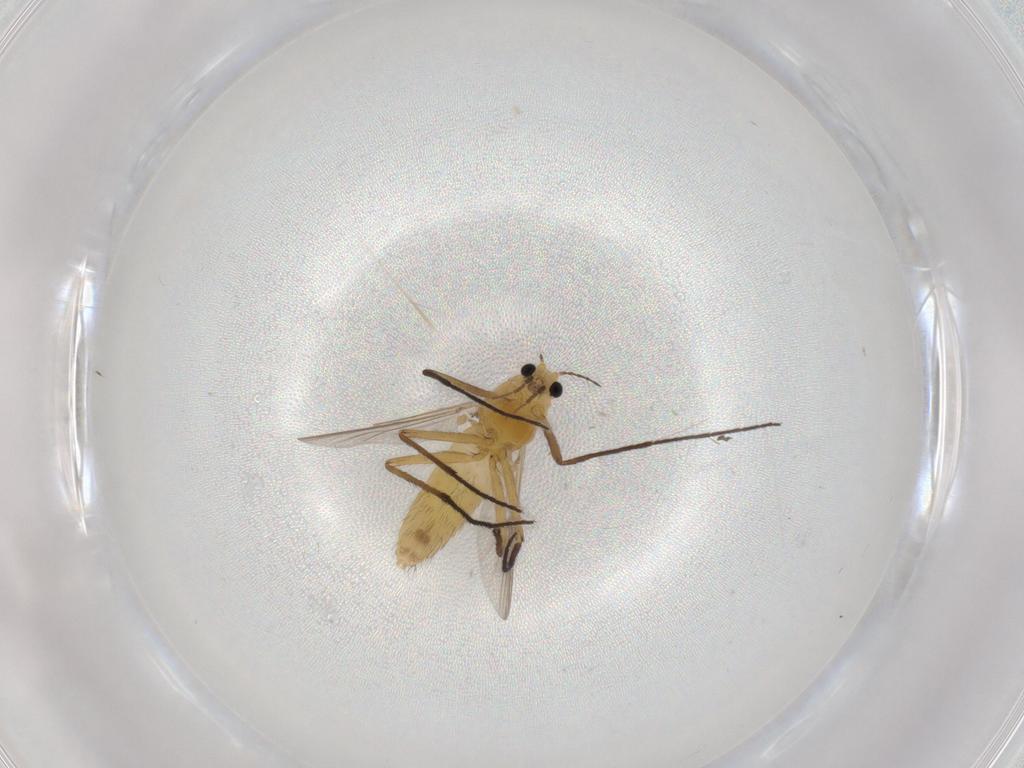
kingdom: Animalia
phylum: Arthropoda
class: Insecta
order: Diptera
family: Chironomidae
